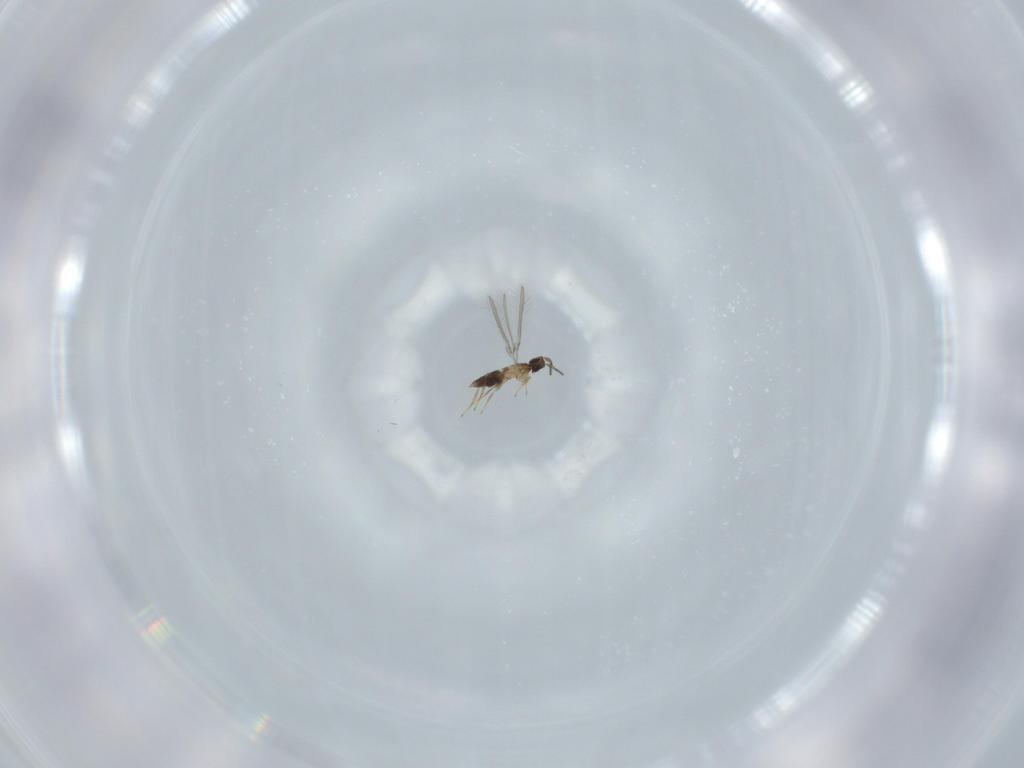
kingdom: Animalia
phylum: Arthropoda
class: Insecta
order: Hymenoptera
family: Mymaridae
